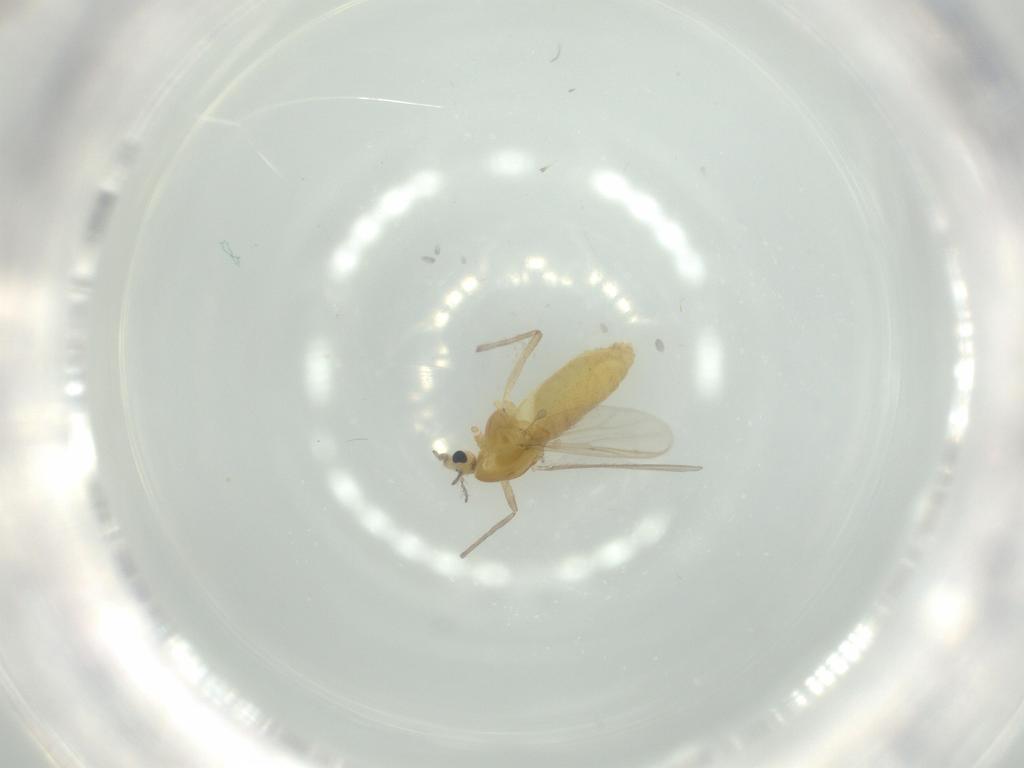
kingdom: Animalia
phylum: Arthropoda
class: Insecta
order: Diptera
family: Chironomidae
